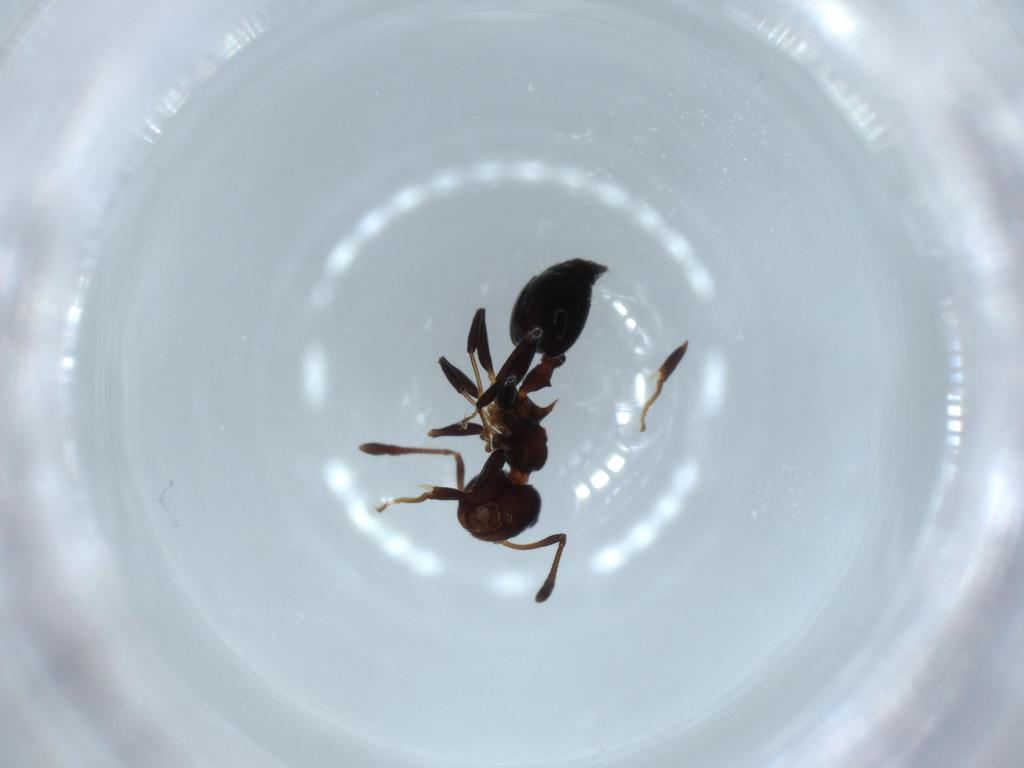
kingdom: Animalia
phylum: Arthropoda
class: Insecta
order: Hymenoptera
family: Scelionidae
